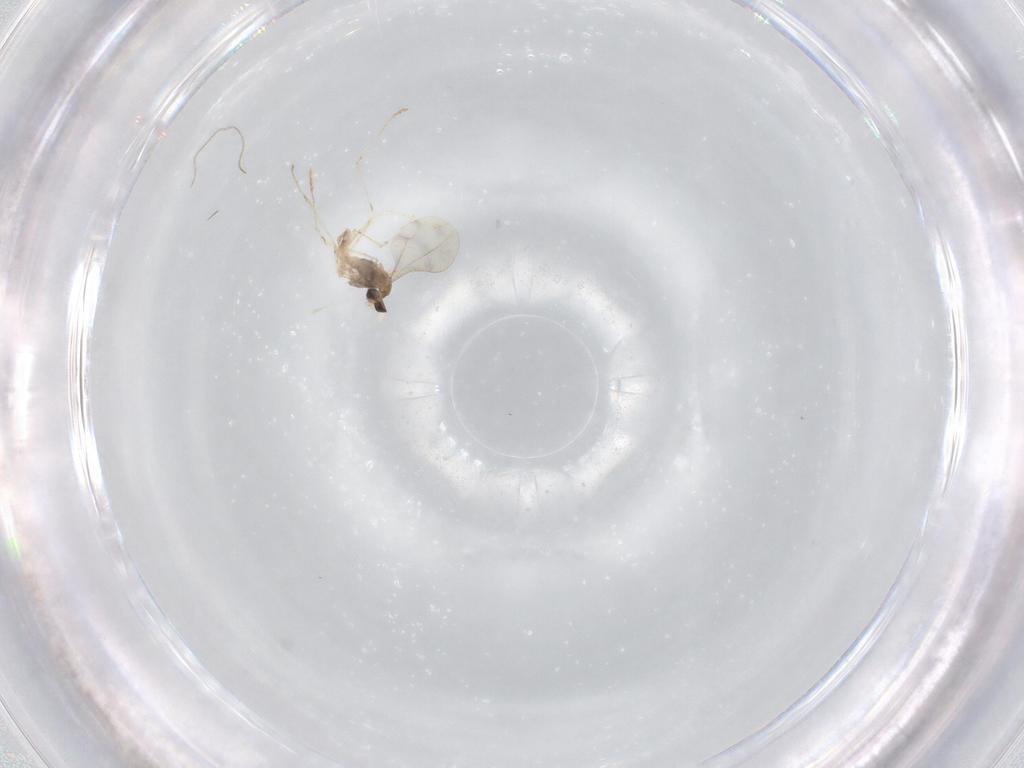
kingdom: Animalia
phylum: Arthropoda
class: Insecta
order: Diptera
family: Cecidomyiidae
